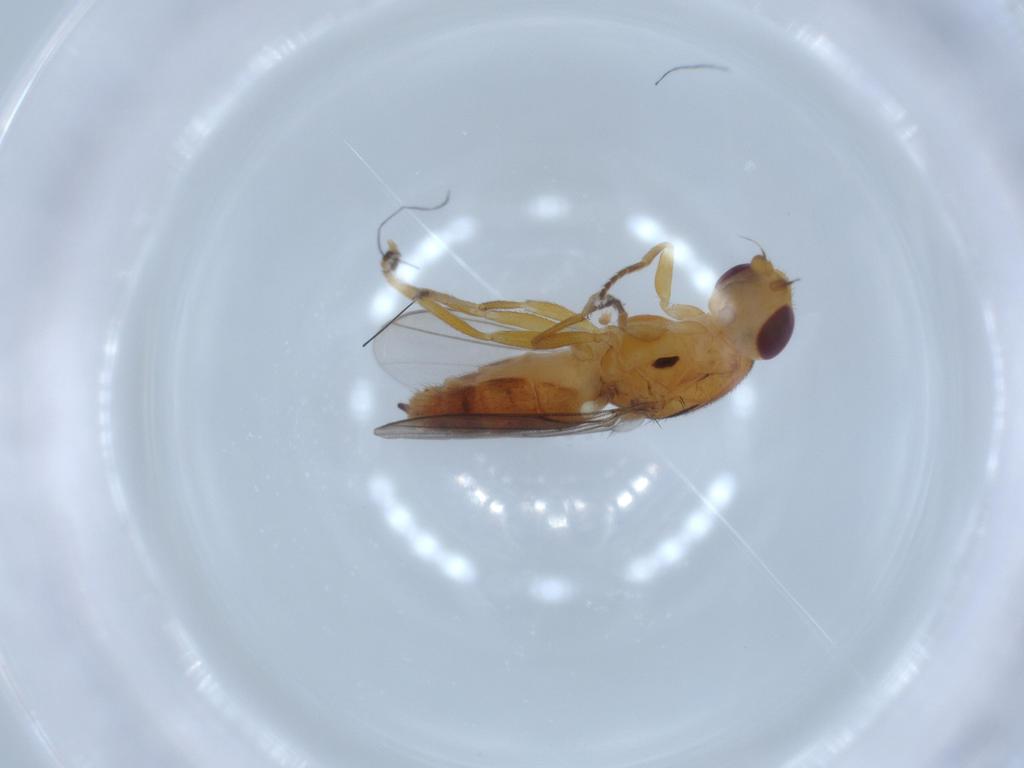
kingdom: Animalia
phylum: Arthropoda
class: Insecta
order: Diptera
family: Chloropidae
